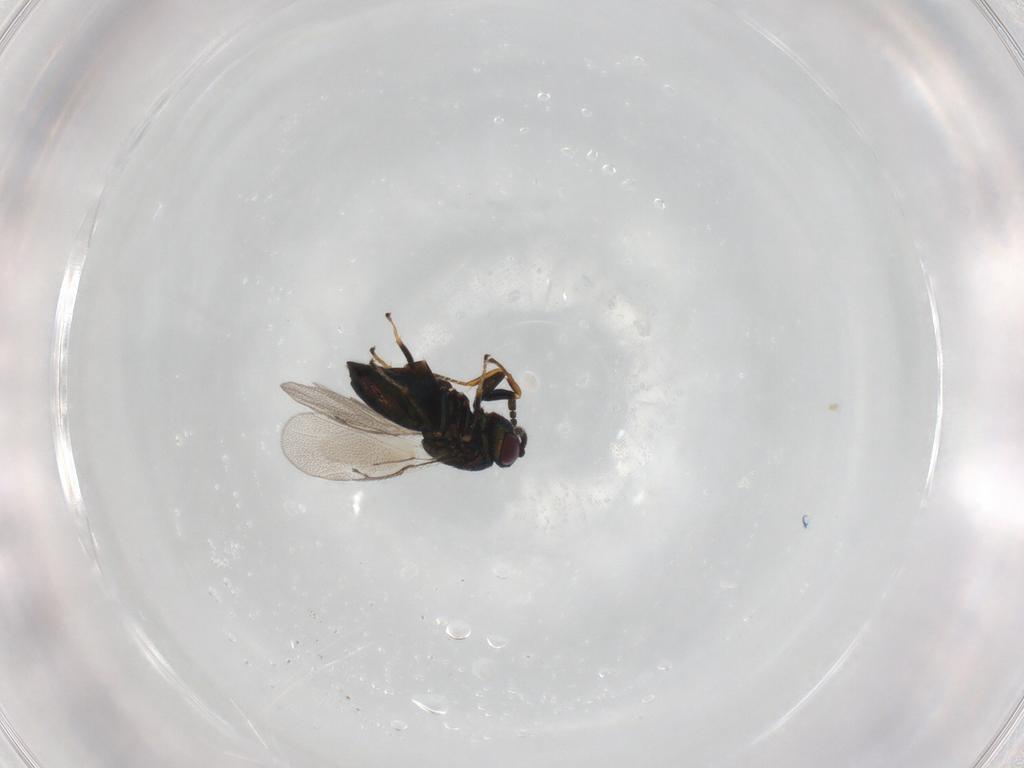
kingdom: Animalia
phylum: Arthropoda
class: Insecta
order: Hymenoptera
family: Pteromalidae
